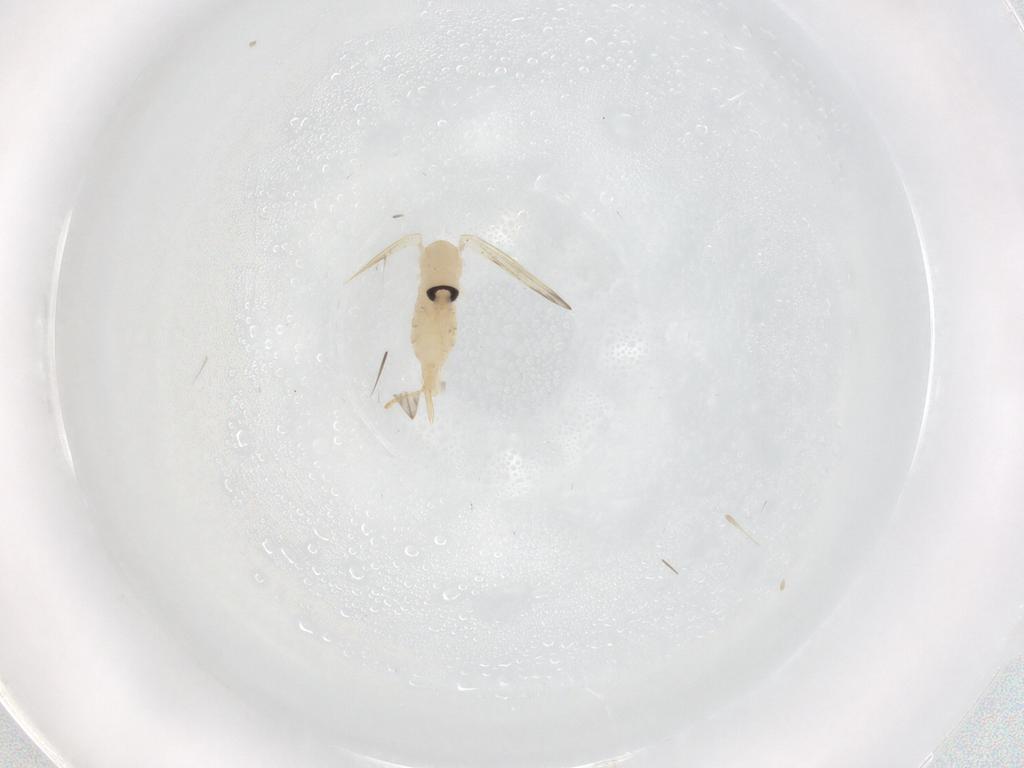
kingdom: Animalia
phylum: Arthropoda
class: Insecta
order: Diptera
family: Psychodidae
